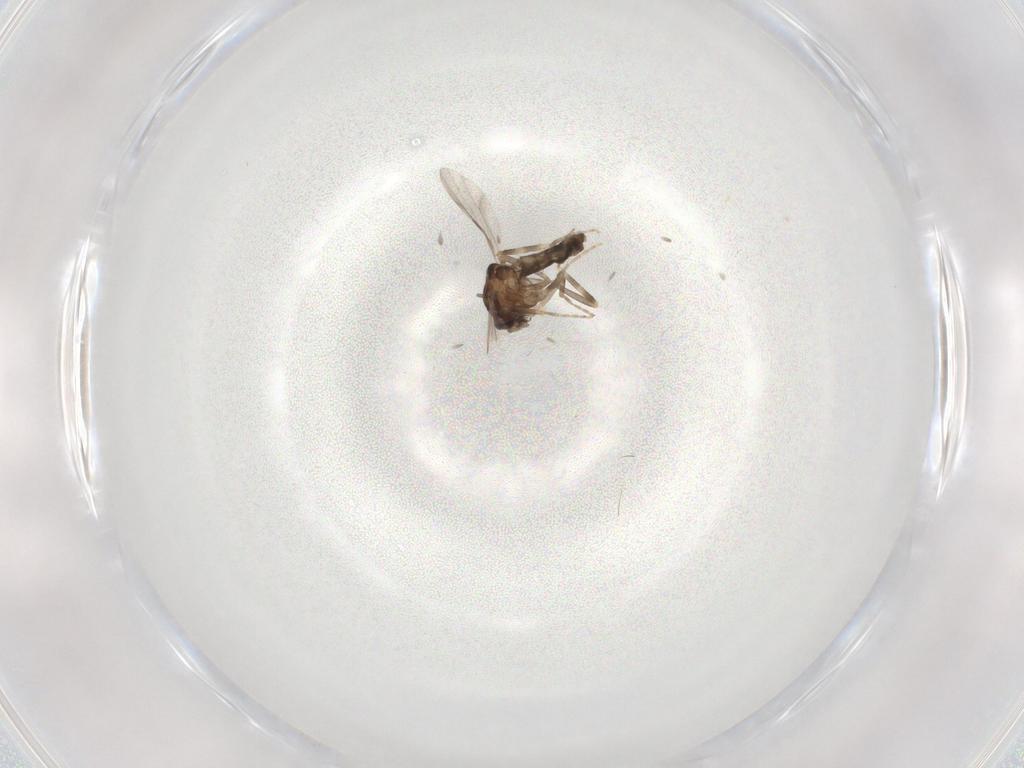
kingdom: Animalia
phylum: Arthropoda
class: Insecta
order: Diptera
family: Ceratopogonidae
